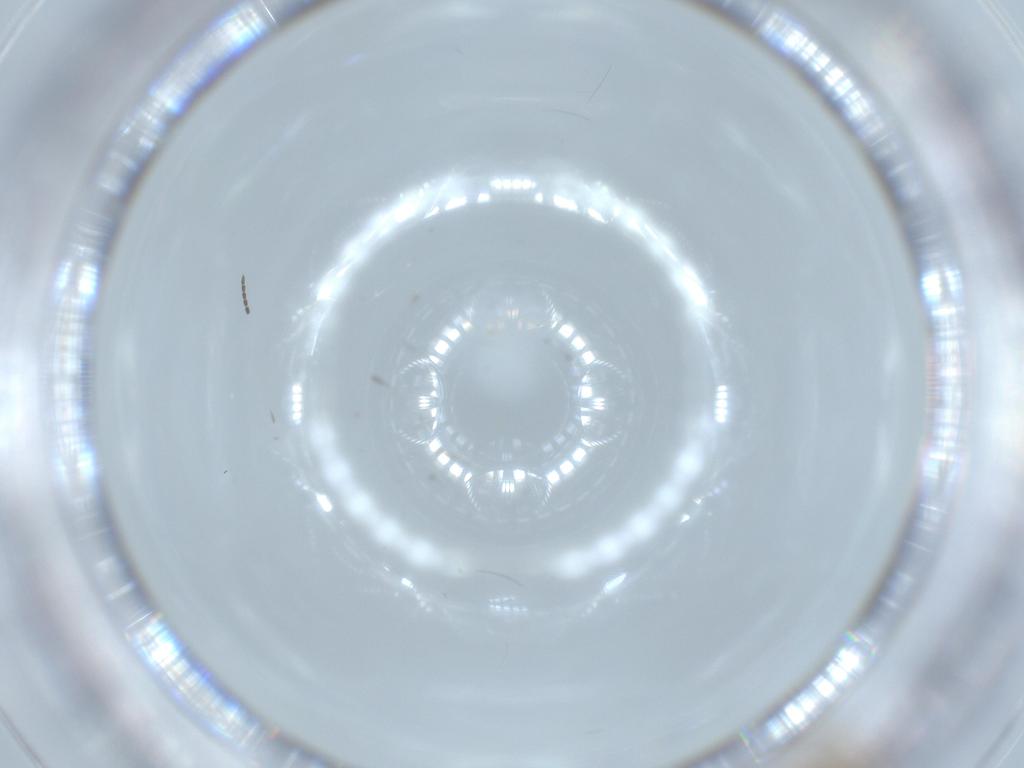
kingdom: Animalia
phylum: Arthropoda
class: Insecta
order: Diptera
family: Sciaridae
